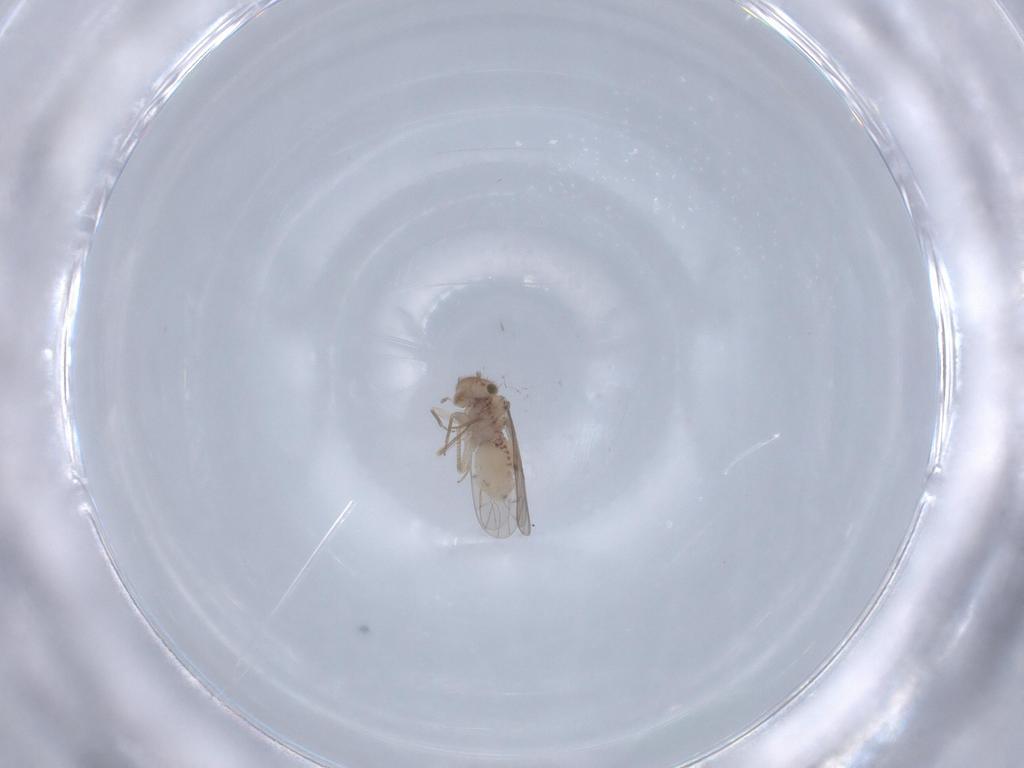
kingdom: Animalia
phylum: Arthropoda
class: Insecta
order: Psocodea
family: Ectopsocidae
